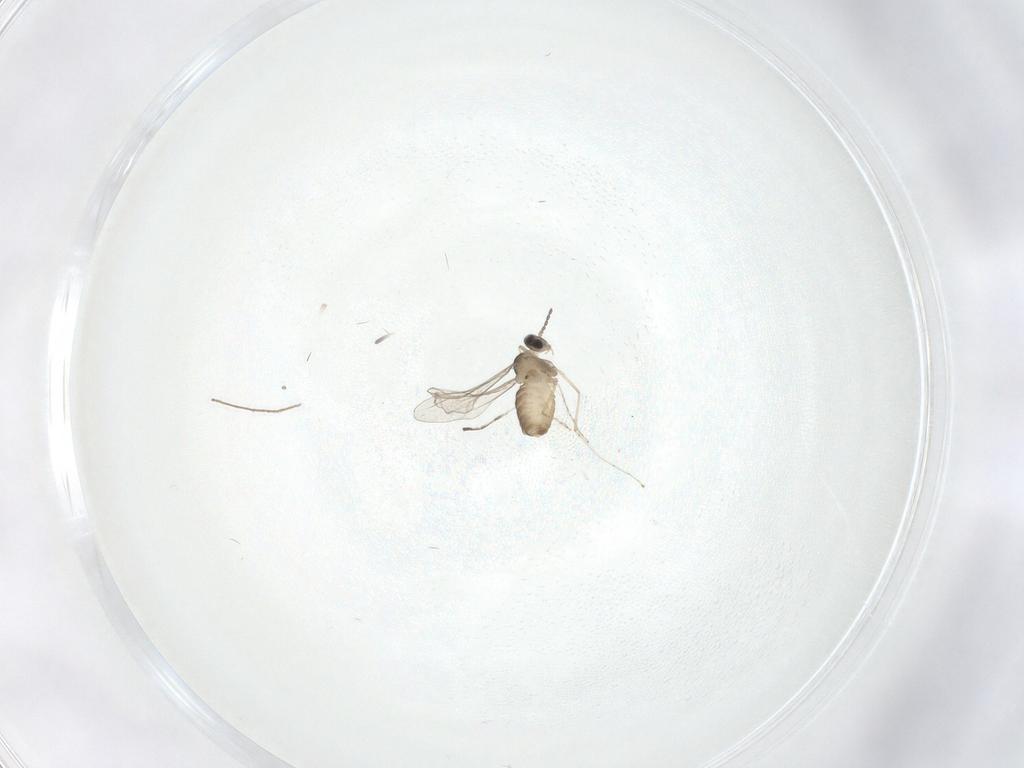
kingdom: Animalia
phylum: Arthropoda
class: Insecta
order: Diptera
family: Cecidomyiidae
